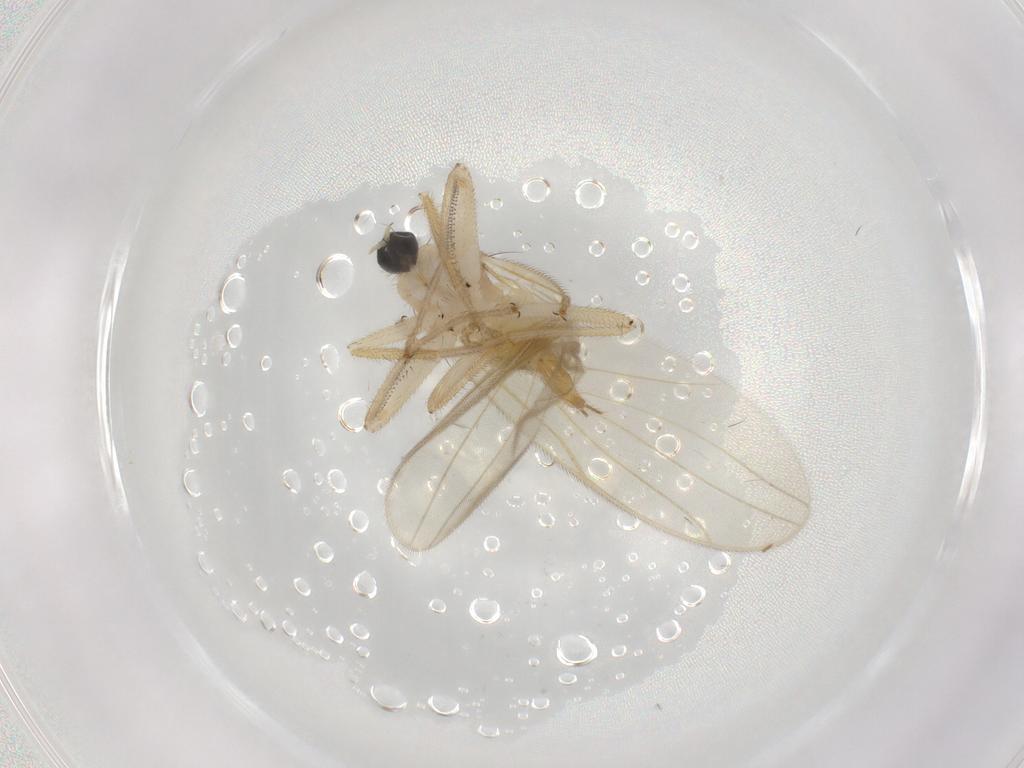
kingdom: Animalia
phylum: Arthropoda
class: Insecta
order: Diptera
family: Hybotidae
